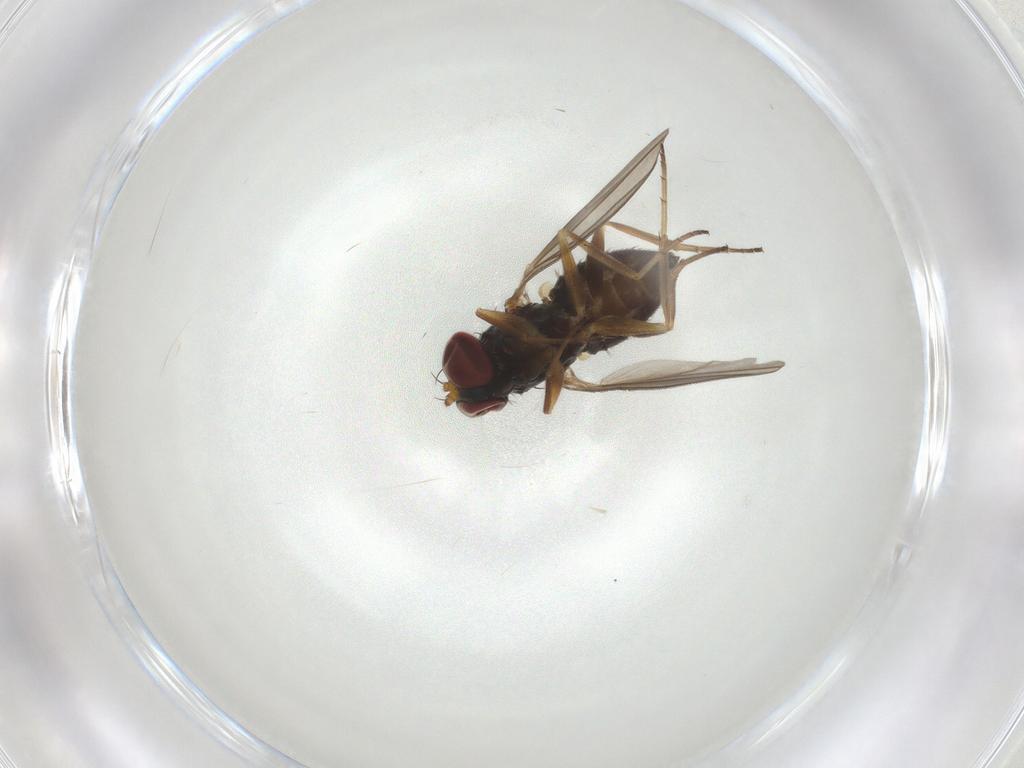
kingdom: Animalia
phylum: Arthropoda
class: Insecta
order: Diptera
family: Dolichopodidae
